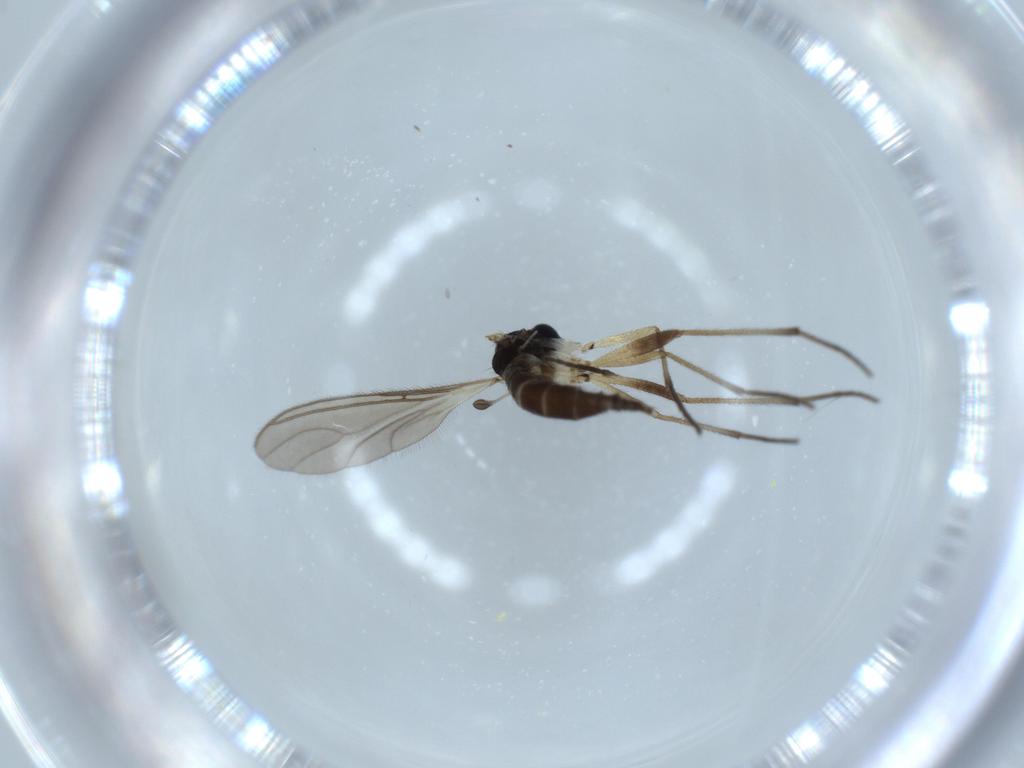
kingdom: Animalia
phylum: Arthropoda
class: Insecta
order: Diptera
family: Sciaridae
